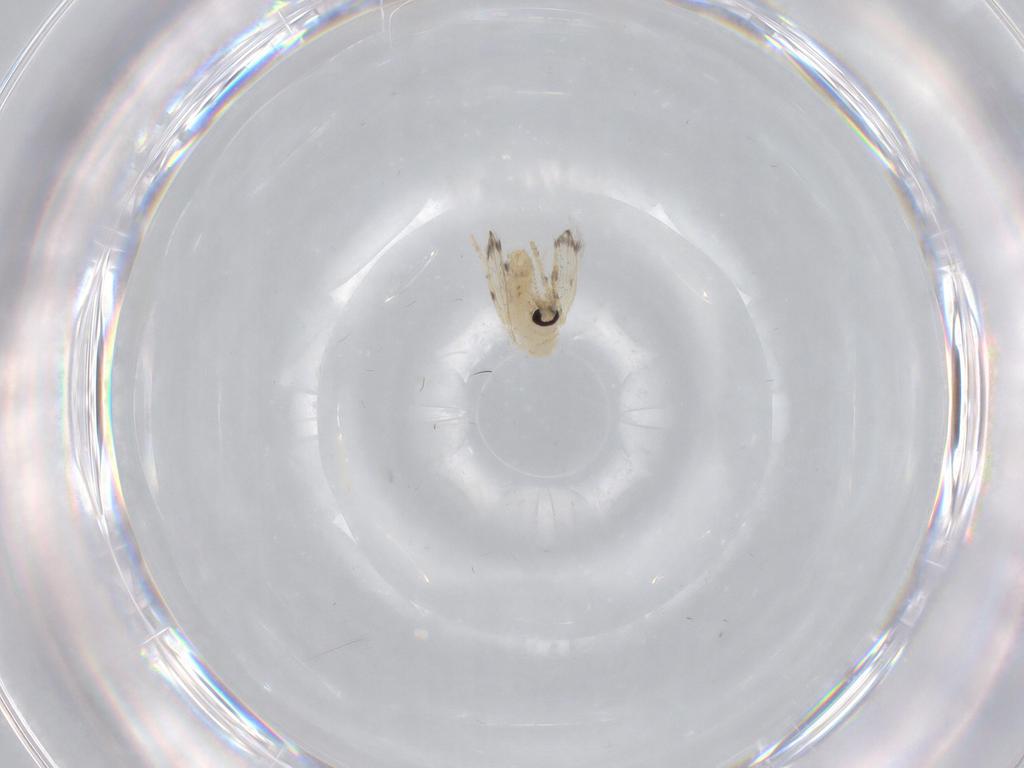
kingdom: Animalia
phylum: Arthropoda
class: Insecta
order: Diptera
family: Psychodidae
